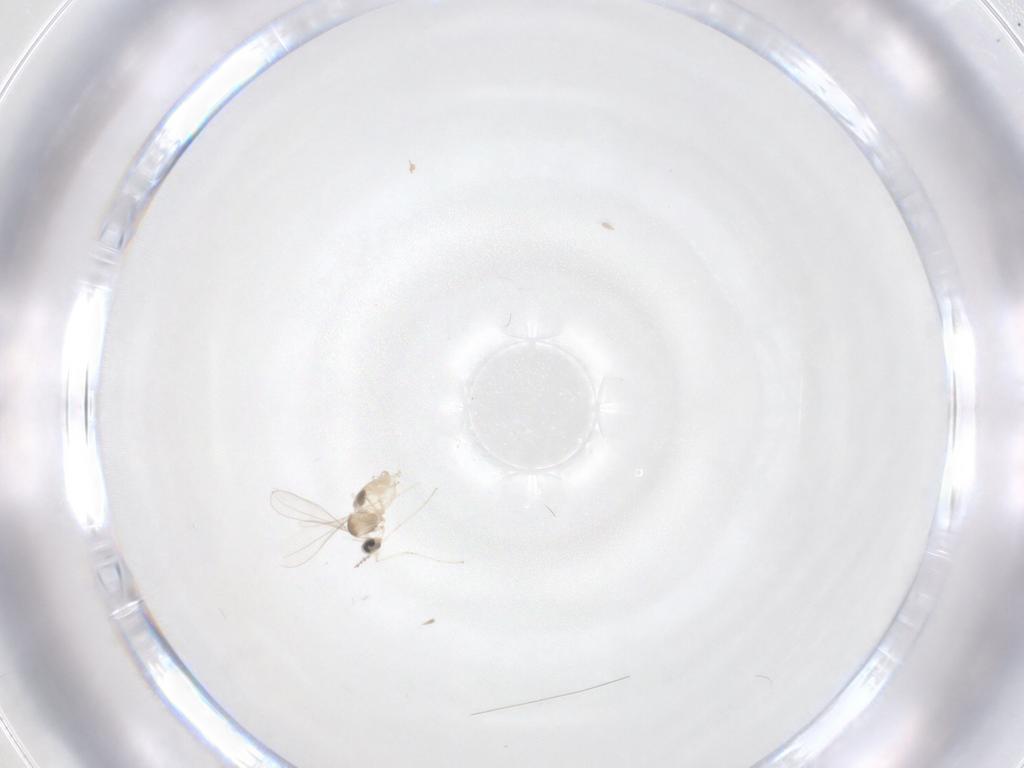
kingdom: Animalia
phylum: Arthropoda
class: Insecta
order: Diptera
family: Cecidomyiidae
